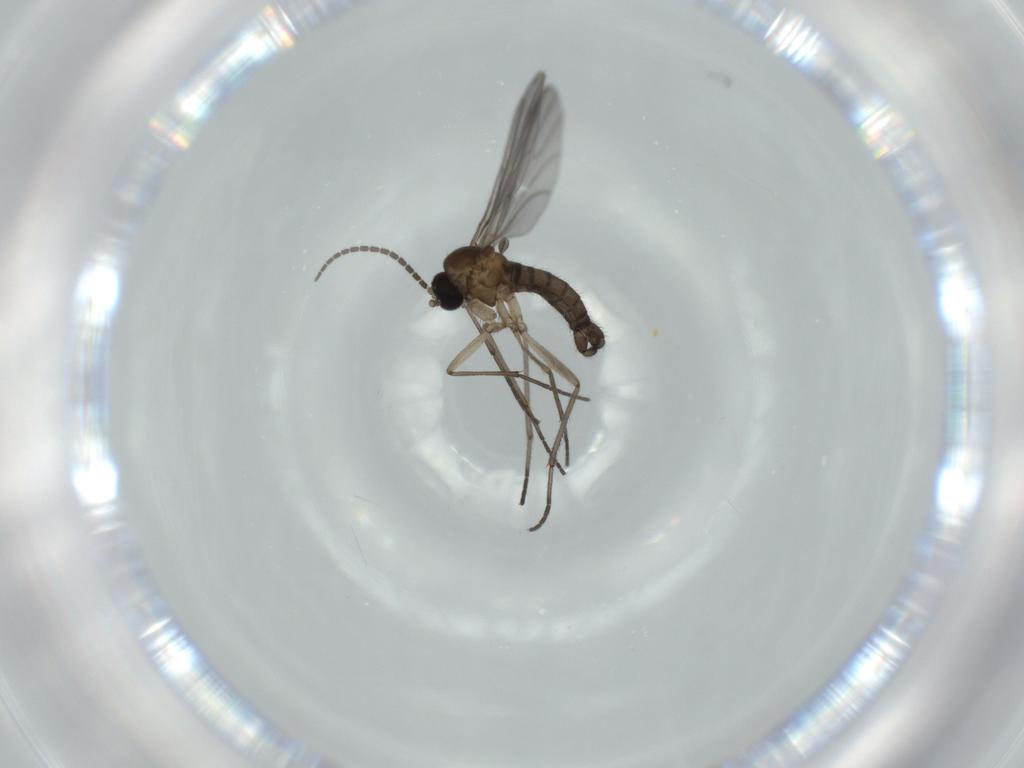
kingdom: Animalia
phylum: Arthropoda
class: Insecta
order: Diptera
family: Sciaridae
